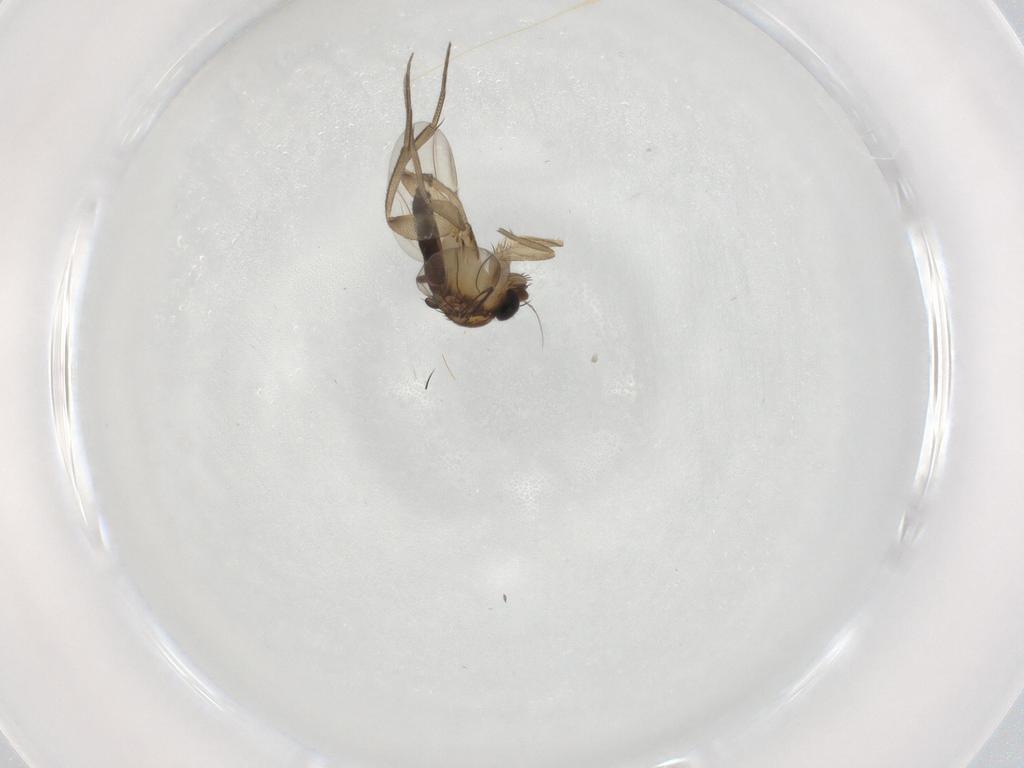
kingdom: Animalia
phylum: Arthropoda
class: Insecta
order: Diptera
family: Phoridae
